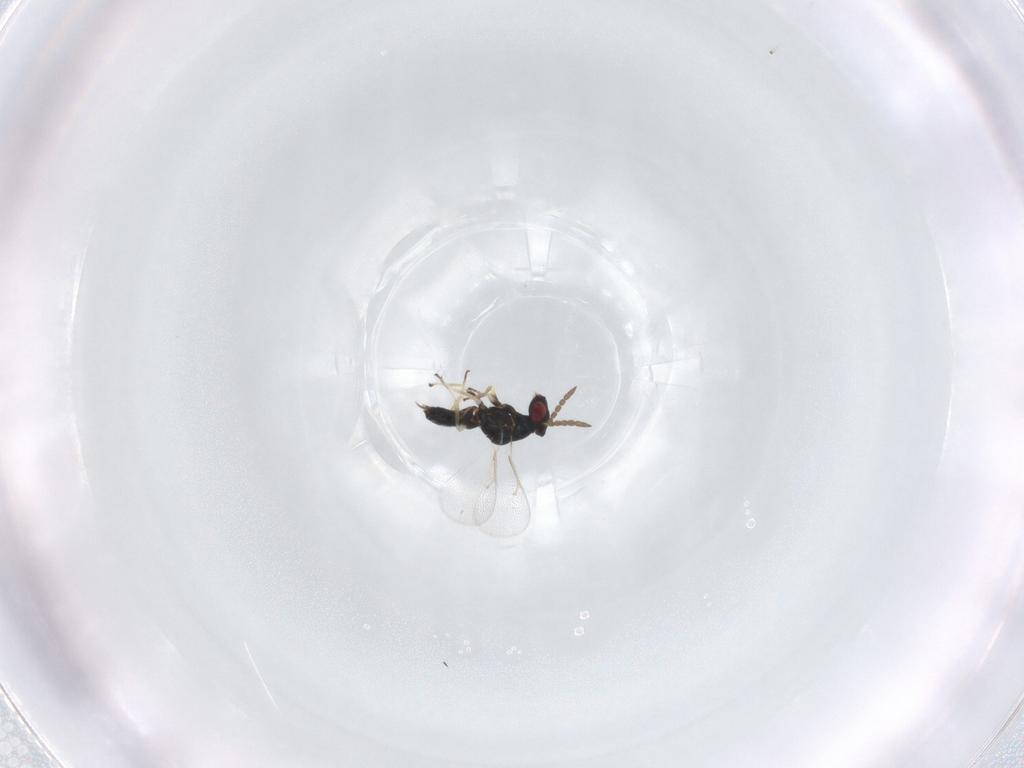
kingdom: Animalia
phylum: Arthropoda
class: Insecta
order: Hymenoptera
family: Eulophidae
